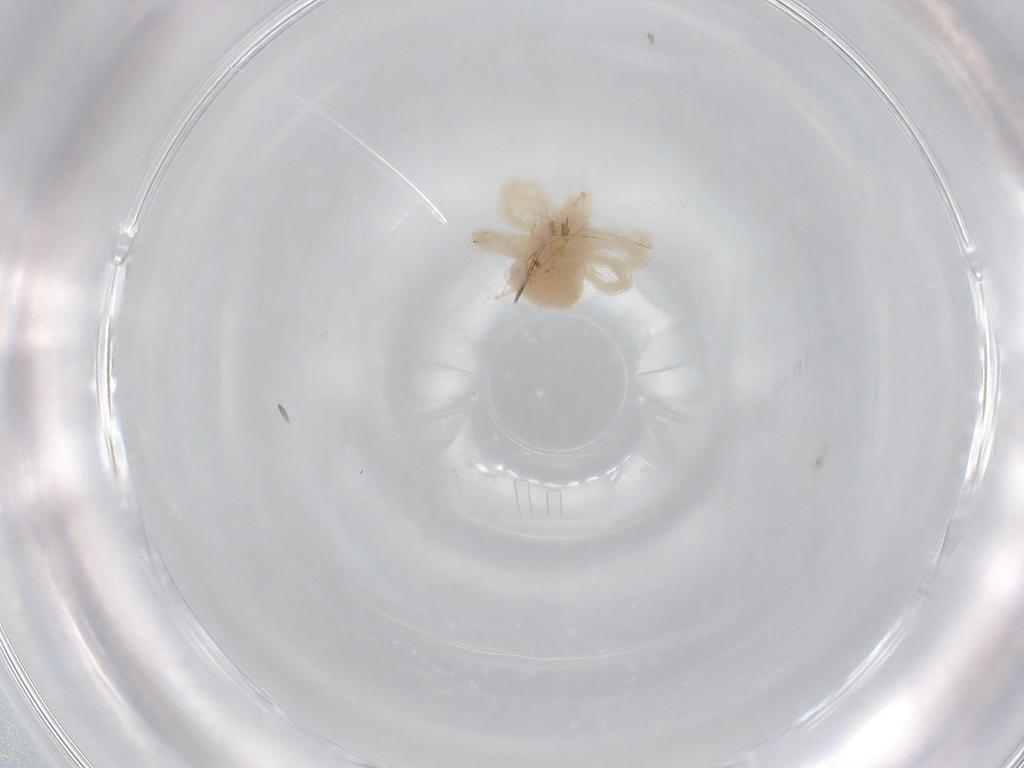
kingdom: Animalia
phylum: Arthropoda
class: Arachnida
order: Trombidiformes
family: Anystidae
